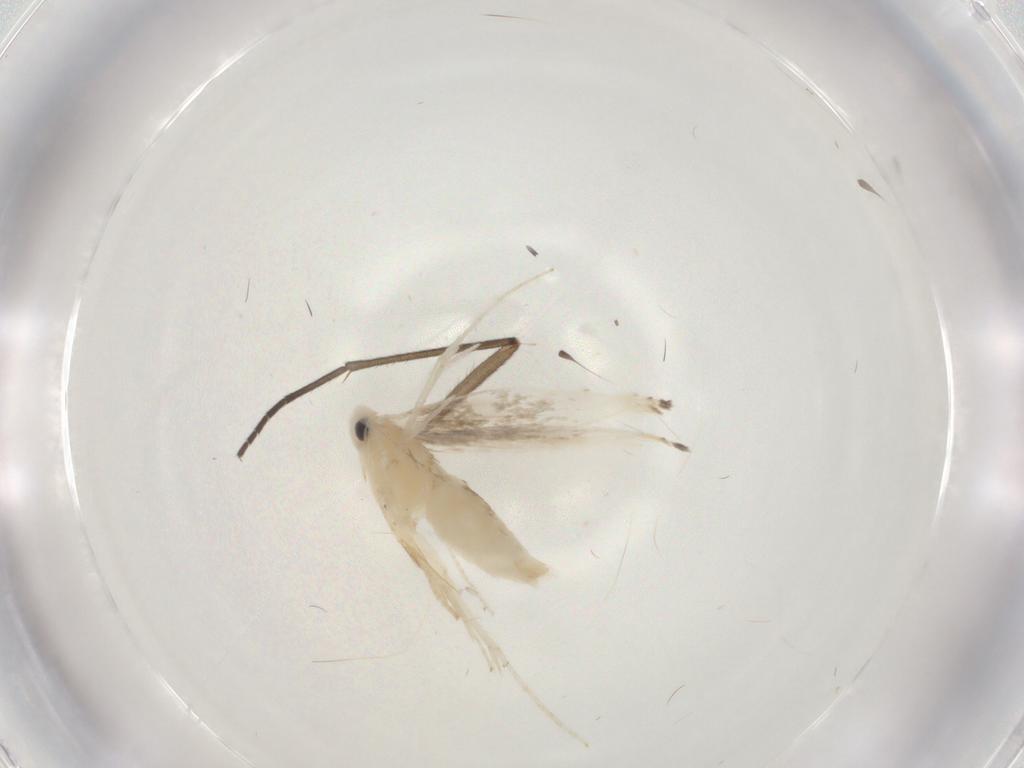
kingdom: Animalia
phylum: Arthropoda
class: Insecta
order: Lepidoptera
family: Gracillariidae
